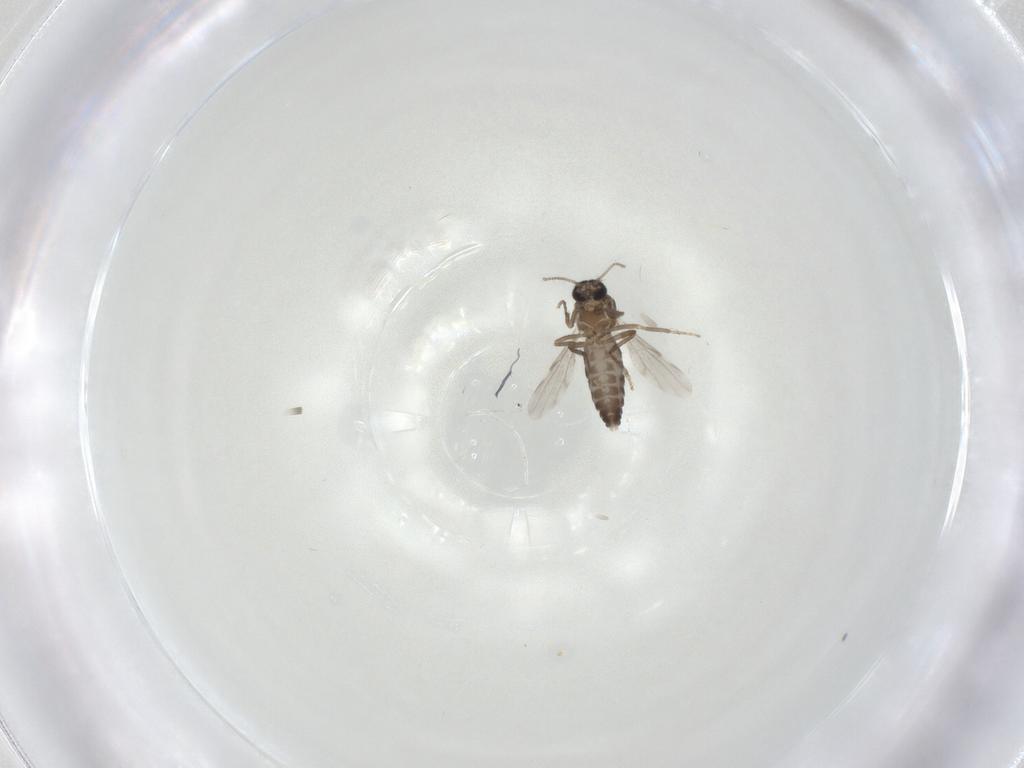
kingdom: Animalia
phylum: Arthropoda
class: Insecta
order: Diptera
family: Ceratopogonidae
